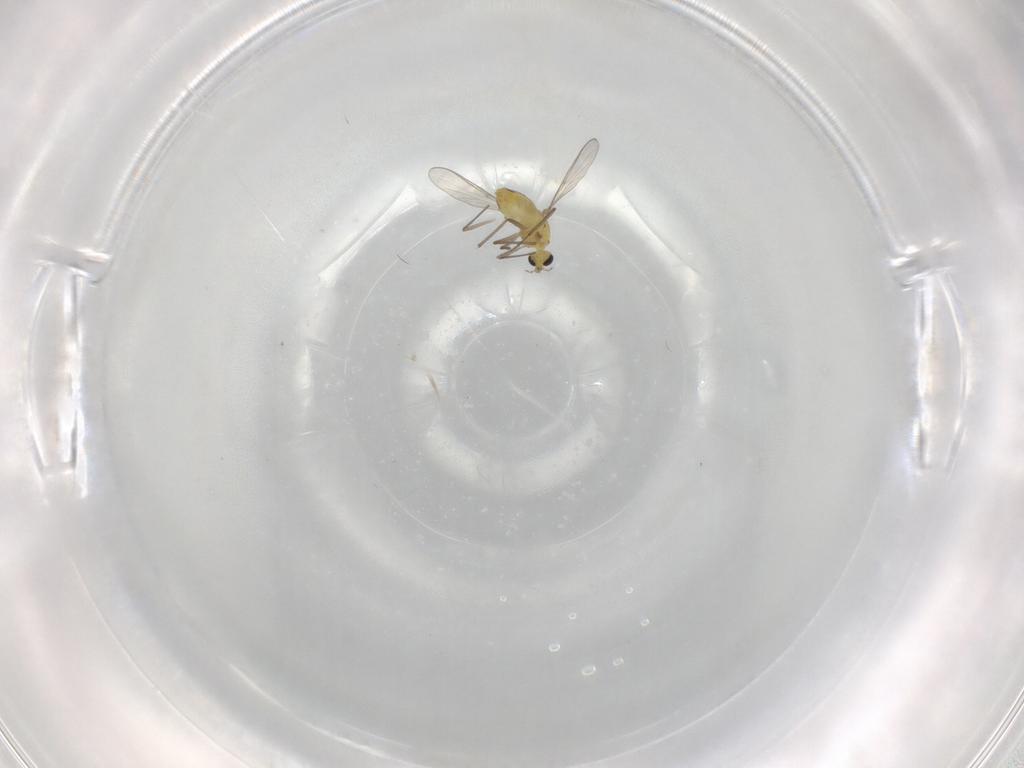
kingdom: Animalia
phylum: Arthropoda
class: Insecta
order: Diptera
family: Chironomidae
